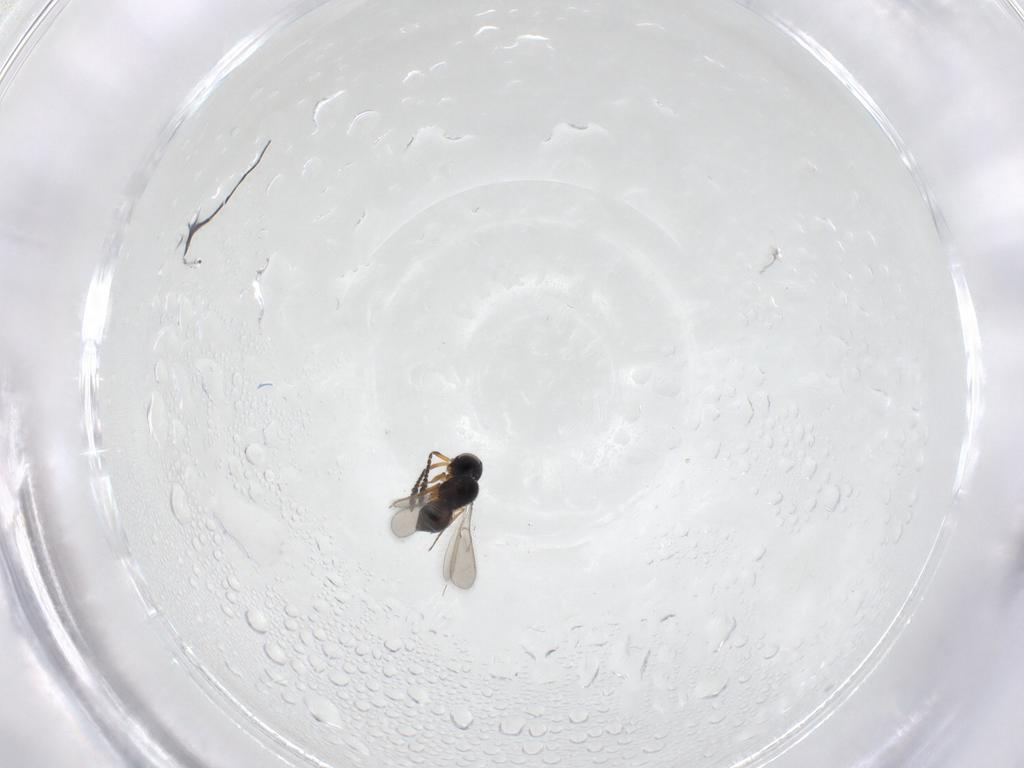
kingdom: Animalia
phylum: Arthropoda
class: Insecta
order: Hymenoptera
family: Scelionidae
